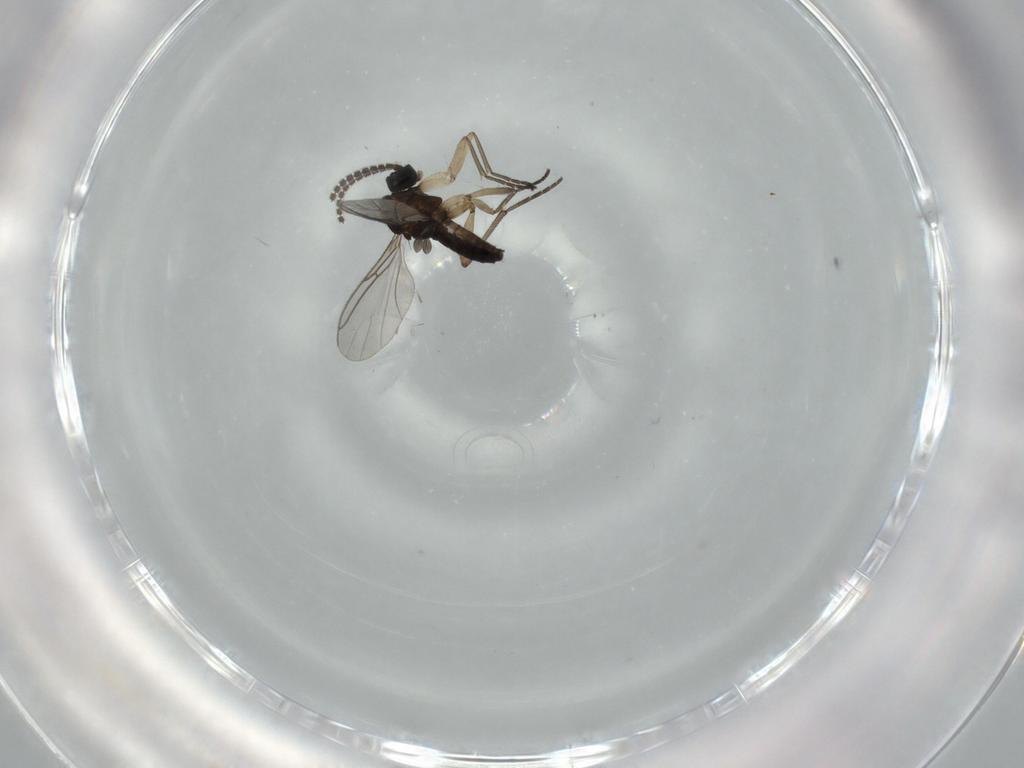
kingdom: Animalia
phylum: Arthropoda
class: Insecta
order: Diptera
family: Sciaridae
